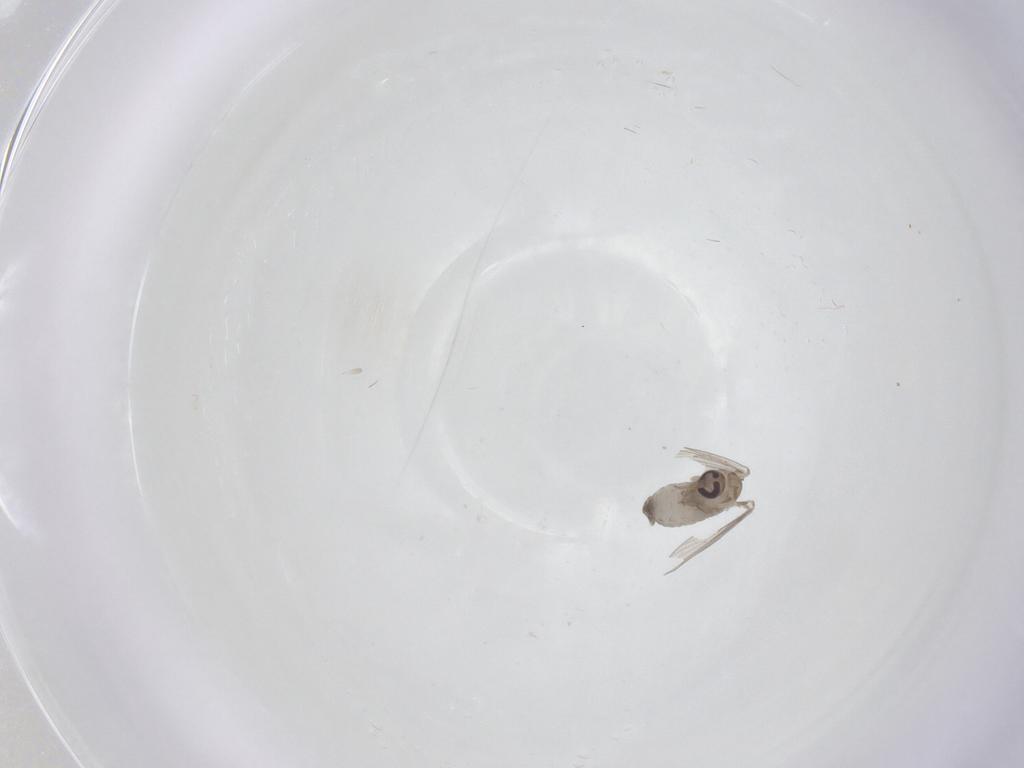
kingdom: Animalia
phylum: Arthropoda
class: Insecta
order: Diptera
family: Psychodidae
